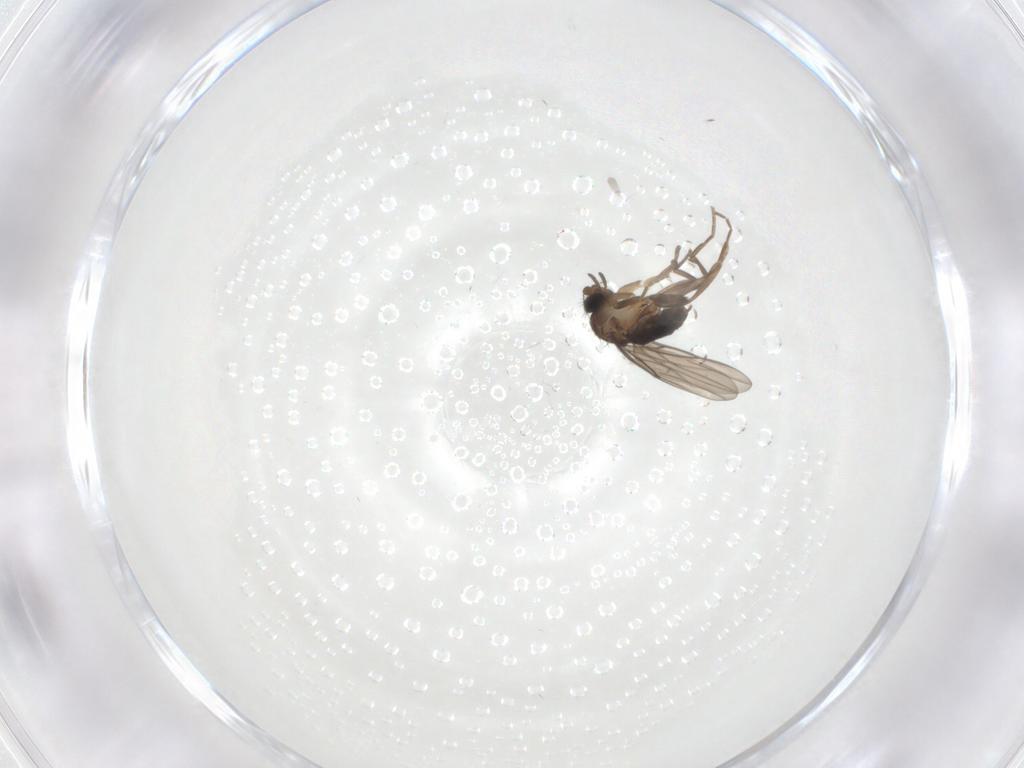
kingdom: Animalia
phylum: Arthropoda
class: Insecta
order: Diptera
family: Phoridae
